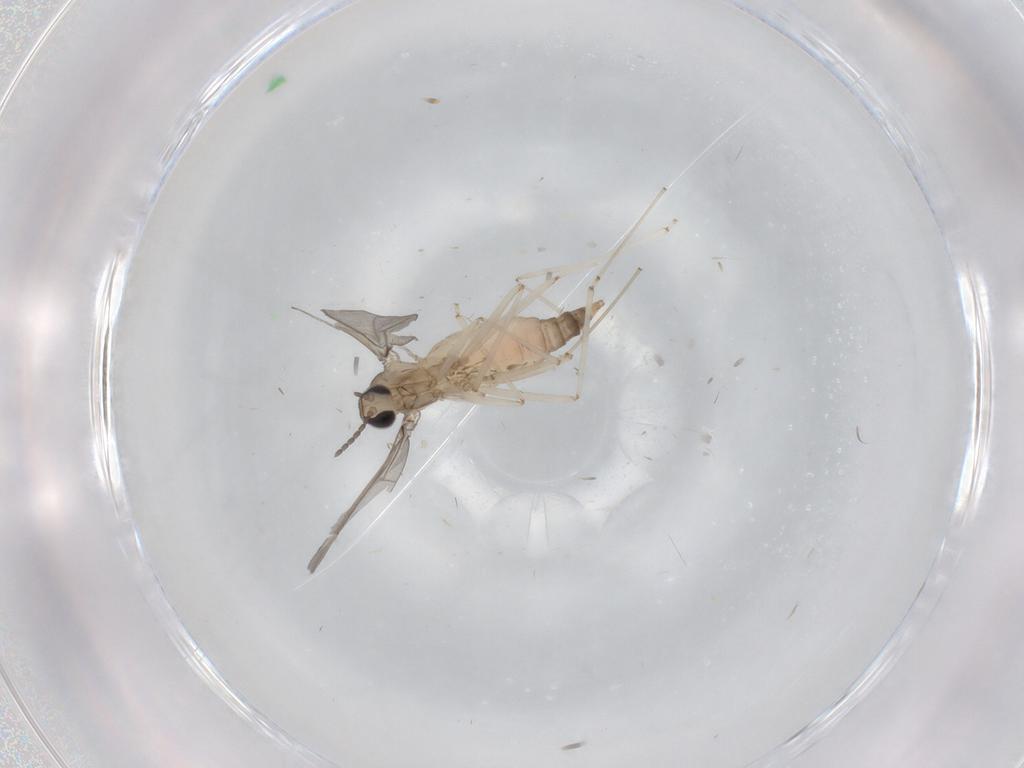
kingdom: Animalia
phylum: Arthropoda
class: Insecta
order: Diptera
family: Cecidomyiidae
